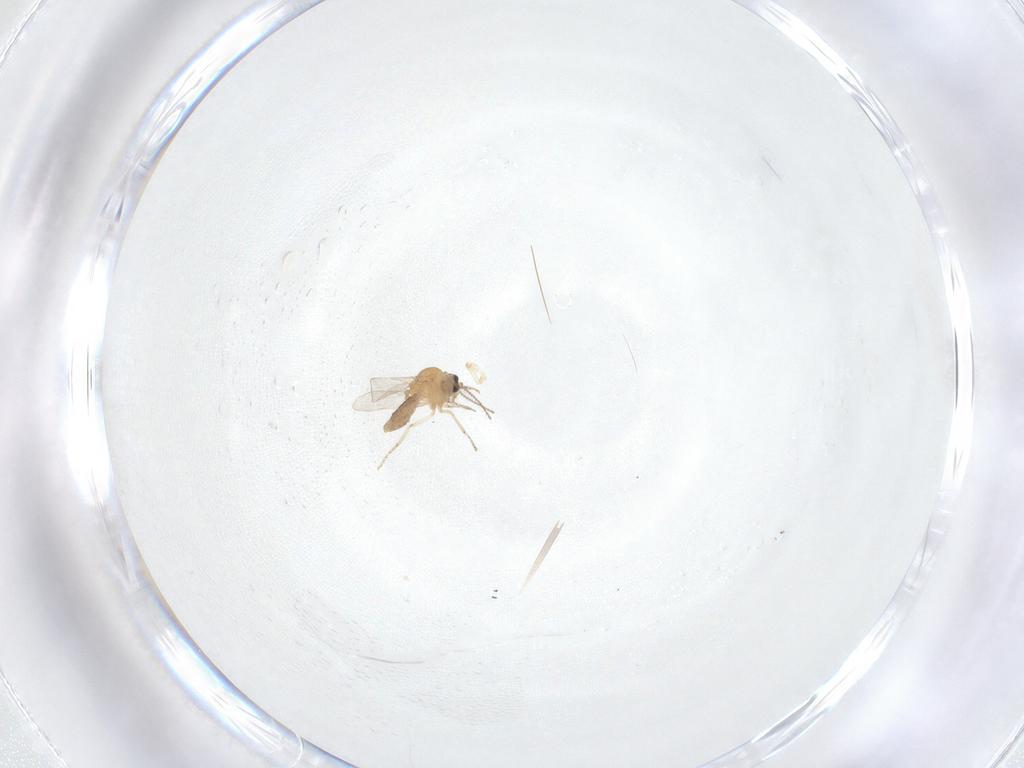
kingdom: Animalia
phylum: Arthropoda
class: Insecta
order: Diptera
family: Ceratopogonidae
